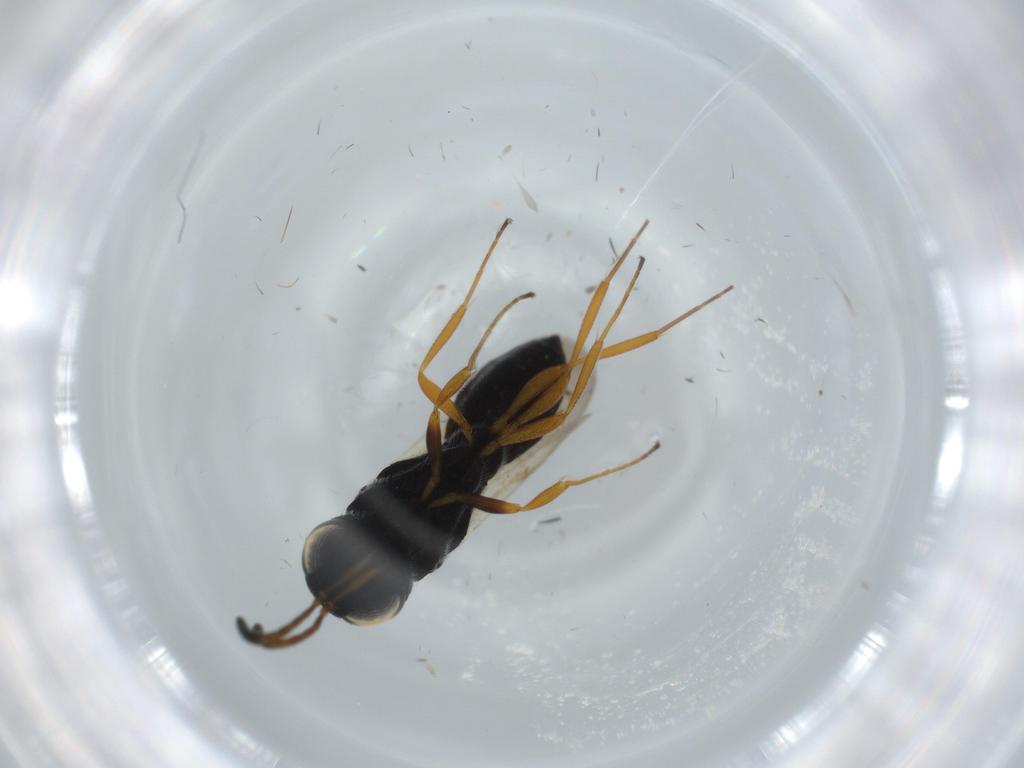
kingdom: Animalia
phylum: Arthropoda
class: Insecta
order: Hymenoptera
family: Scelionidae
